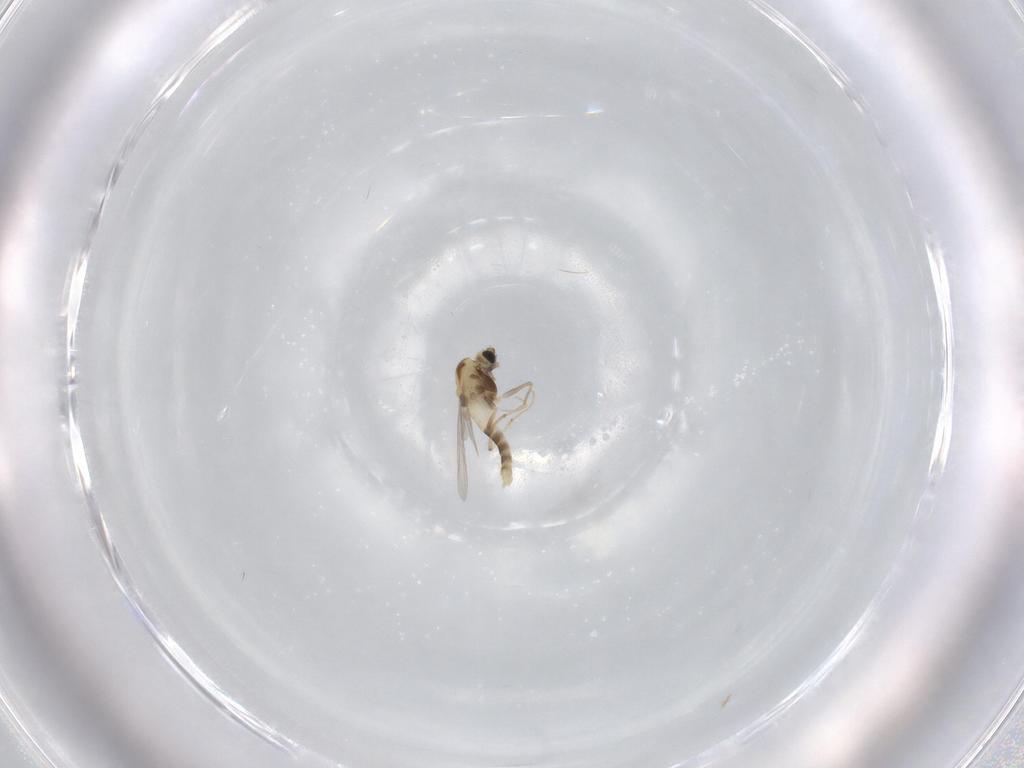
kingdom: Animalia
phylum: Arthropoda
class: Insecta
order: Diptera
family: Chironomidae
